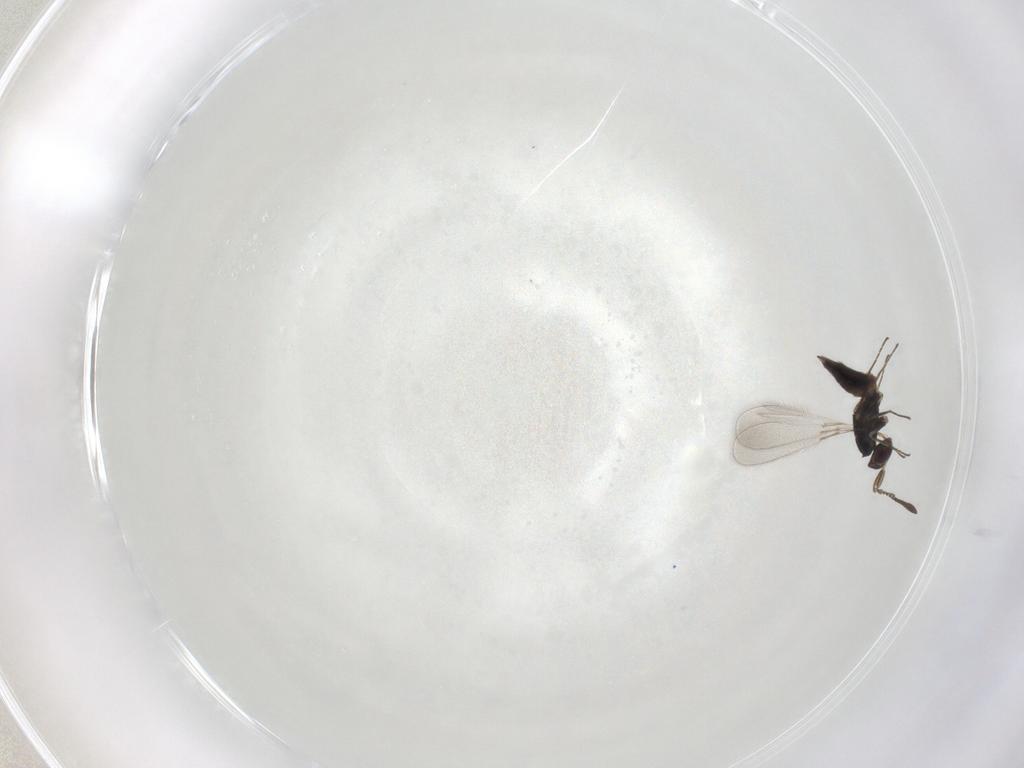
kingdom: Animalia
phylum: Arthropoda
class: Insecta
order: Hymenoptera
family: Mymaridae
